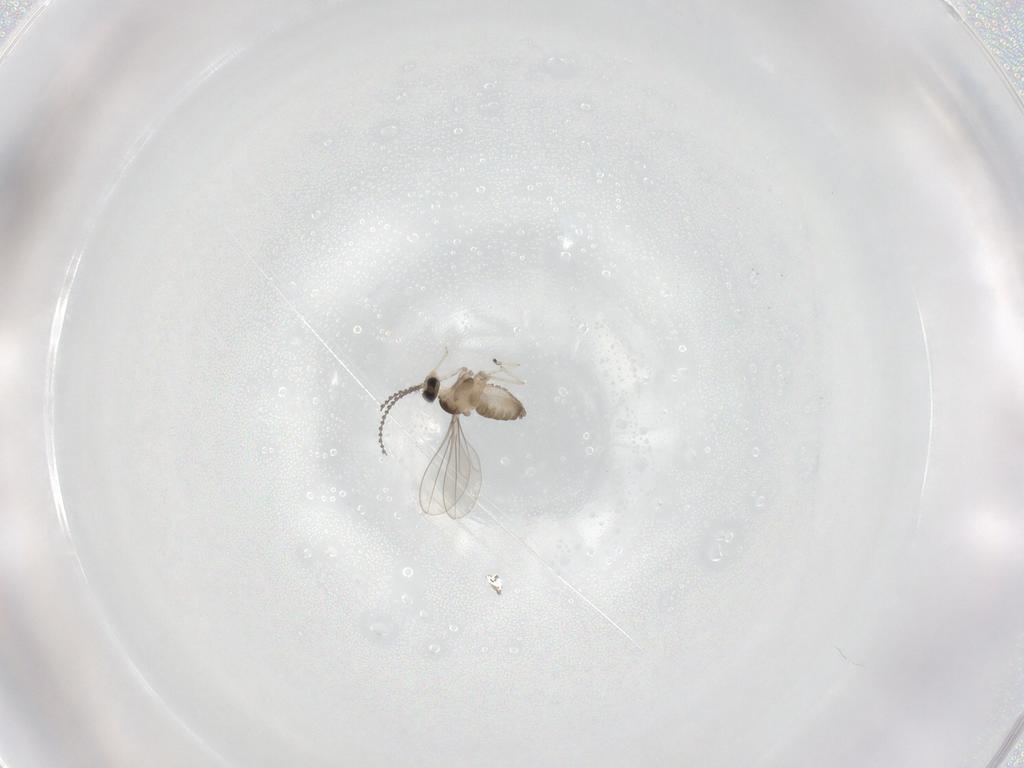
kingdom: Animalia
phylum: Arthropoda
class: Insecta
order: Diptera
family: Cecidomyiidae
